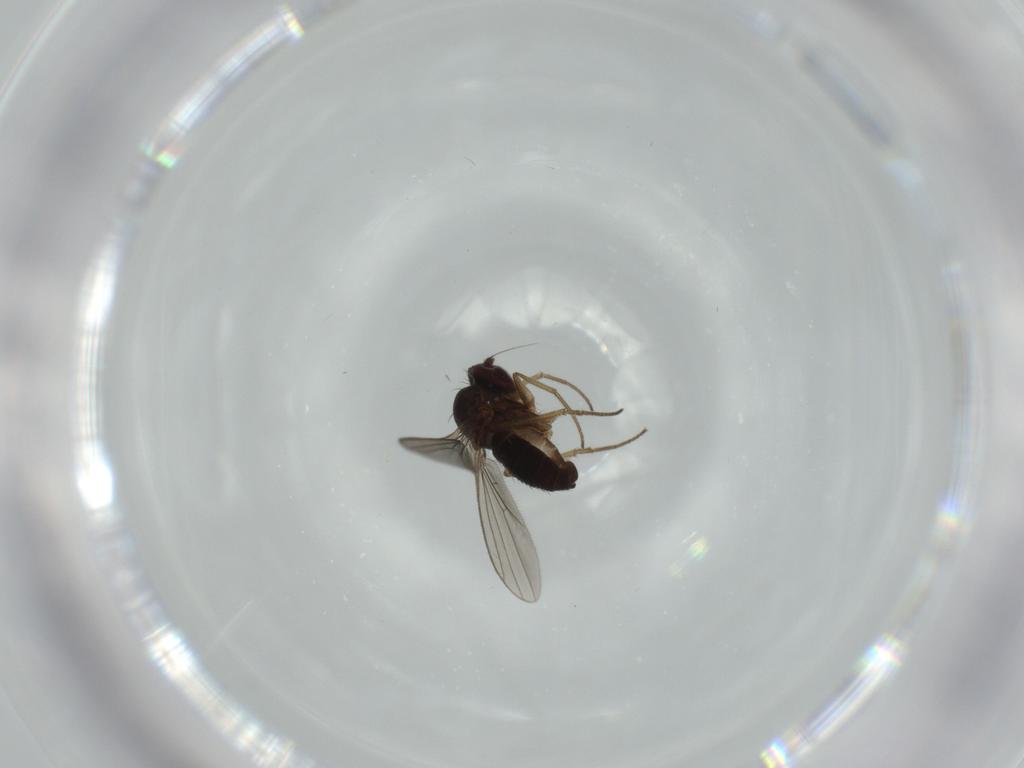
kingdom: Animalia
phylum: Arthropoda
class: Insecta
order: Diptera
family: Dolichopodidae
